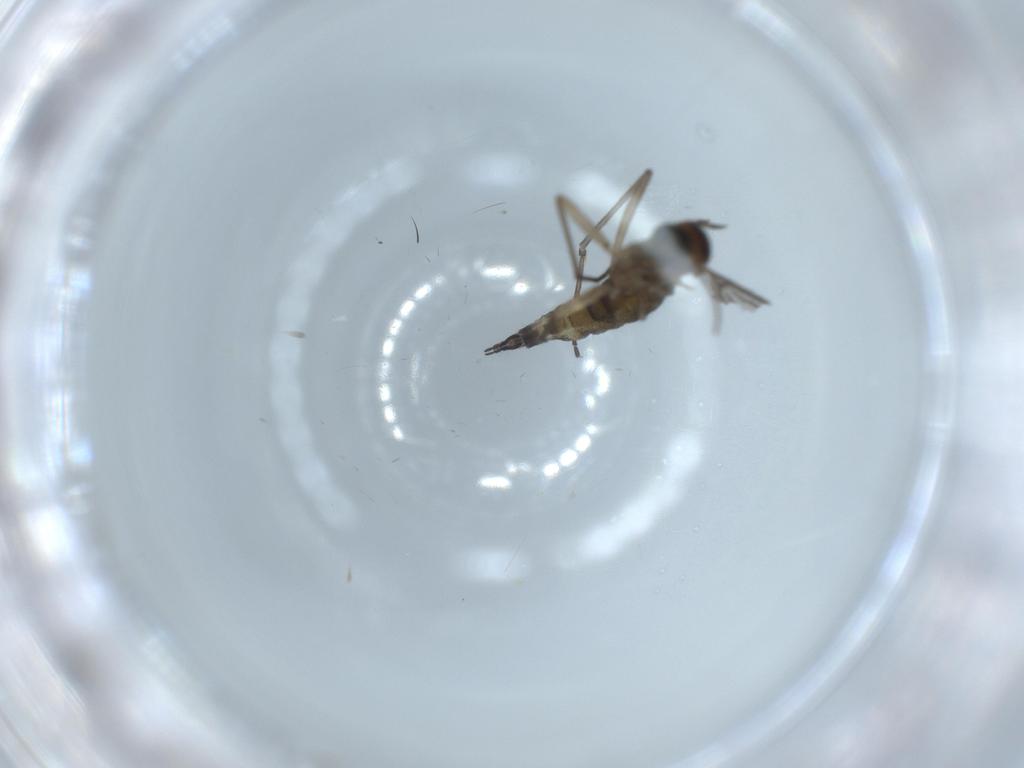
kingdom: Animalia
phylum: Arthropoda
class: Insecta
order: Diptera
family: Sciaridae
